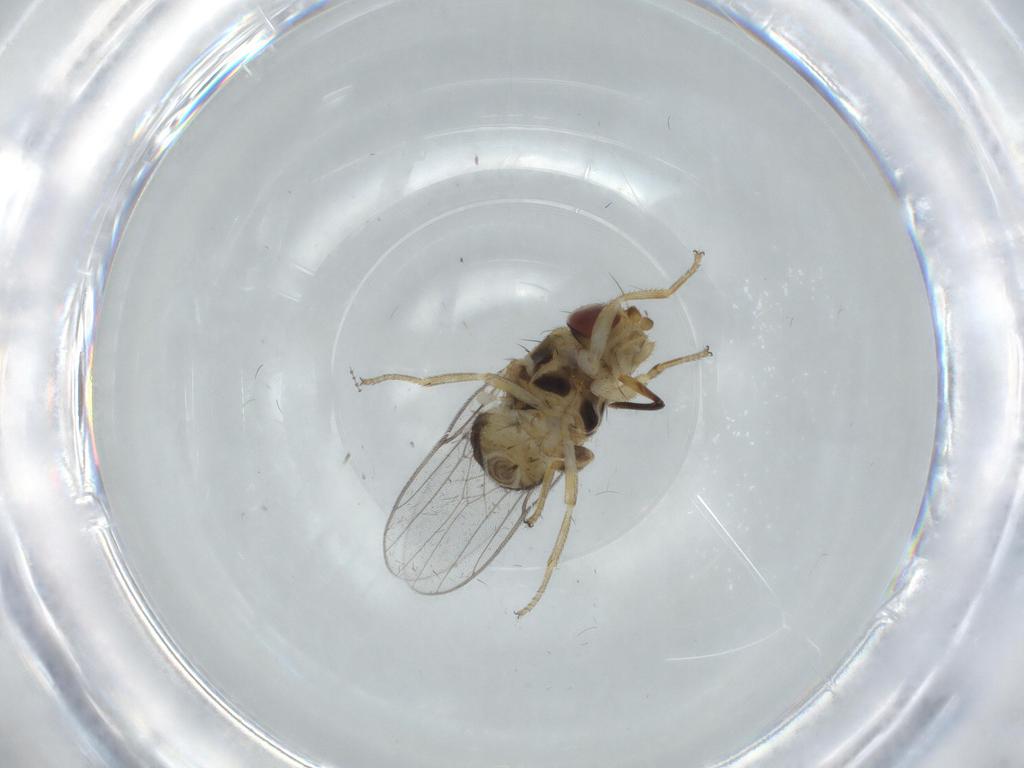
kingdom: Animalia
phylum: Arthropoda
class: Insecta
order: Diptera
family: Chloropidae
